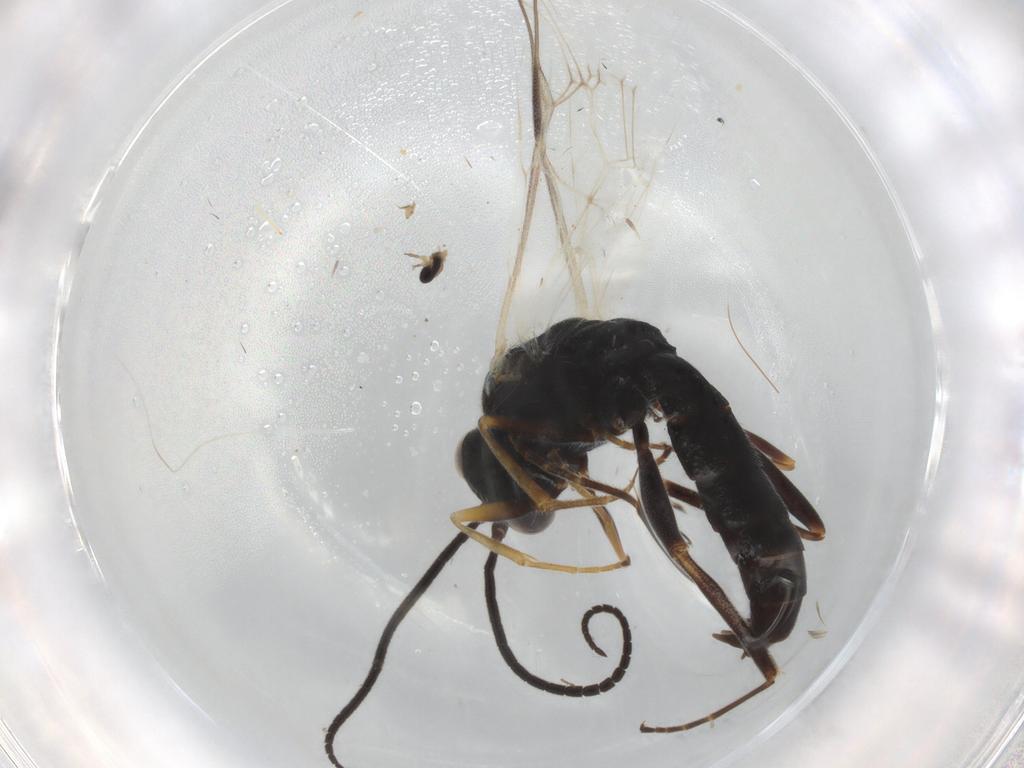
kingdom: Animalia
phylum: Arthropoda
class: Insecta
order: Hymenoptera
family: Ichneumonidae
